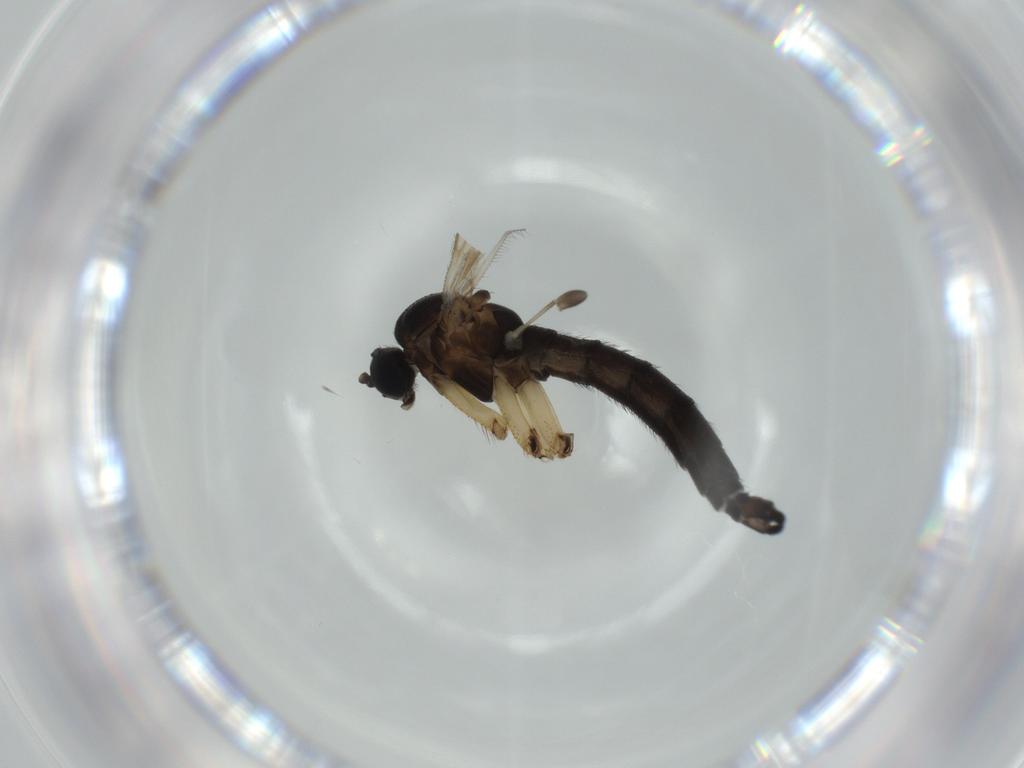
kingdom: Animalia
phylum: Arthropoda
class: Insecta
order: Diptera
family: Sciaridae
